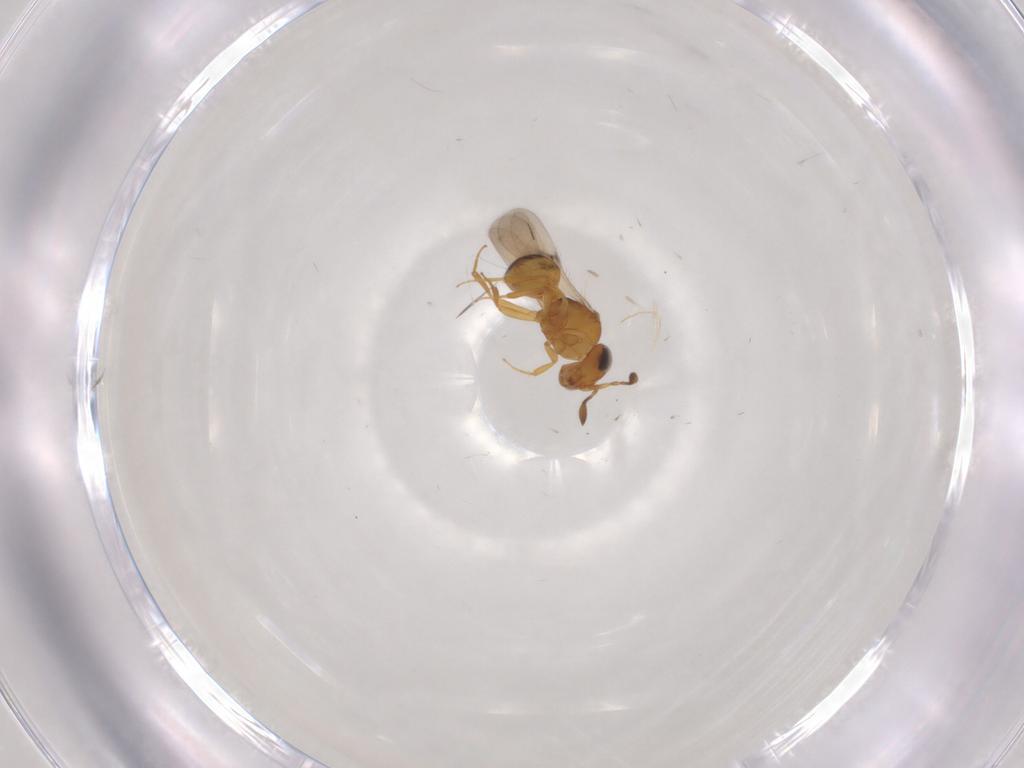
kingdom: Animalia
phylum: Arthropoda
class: Insecta
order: Hymenoptera
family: Scelionidae
